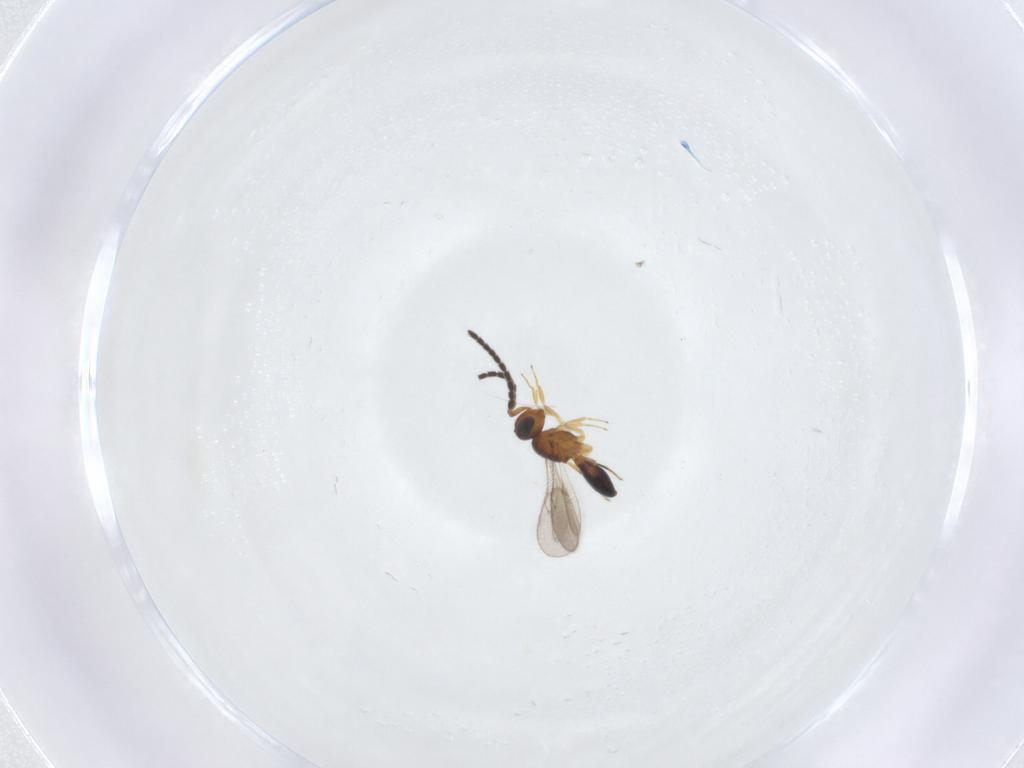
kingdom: Animalia
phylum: Arthropoda
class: Insecta
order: Hymenoptera
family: Scelionidae
